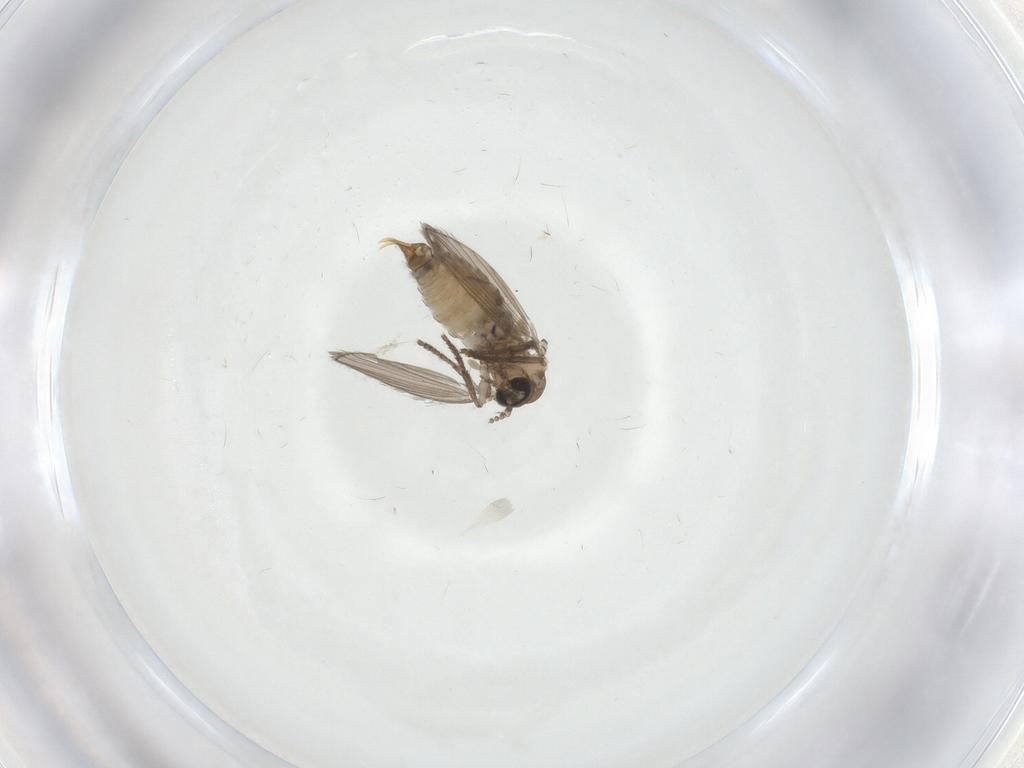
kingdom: Animalia
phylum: Arthropoda
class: Insecta
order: Diptera
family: Psychodidae
